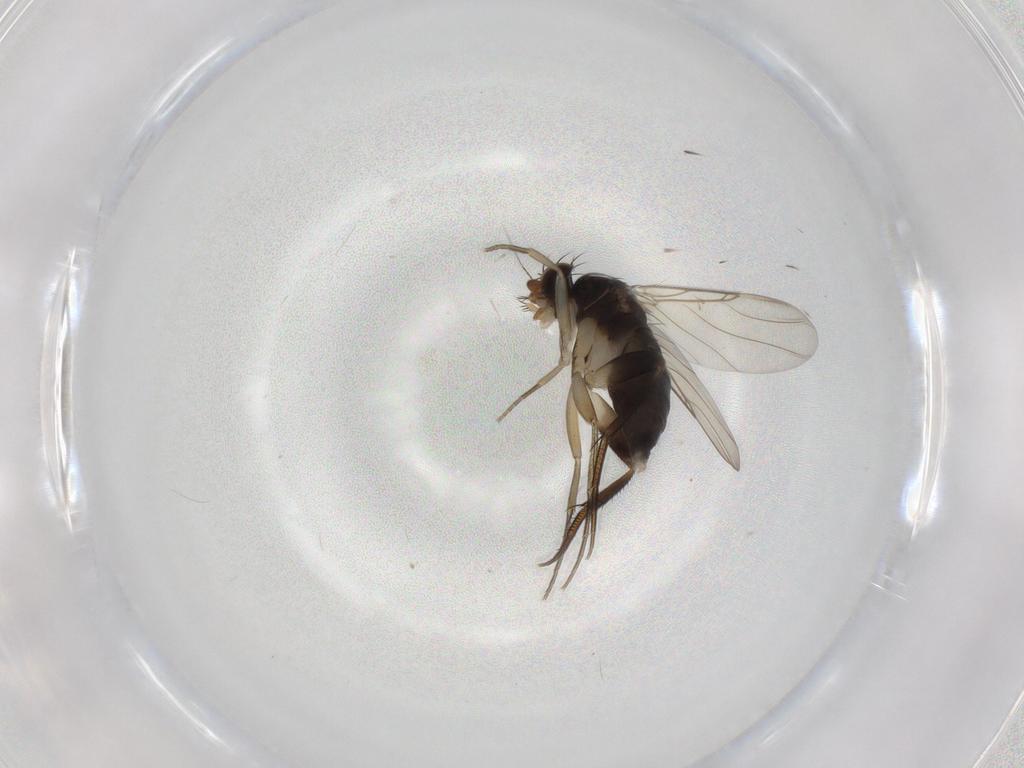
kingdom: Animalia
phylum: Arthropoda
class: Insecta
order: Diptera
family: Phoridae
